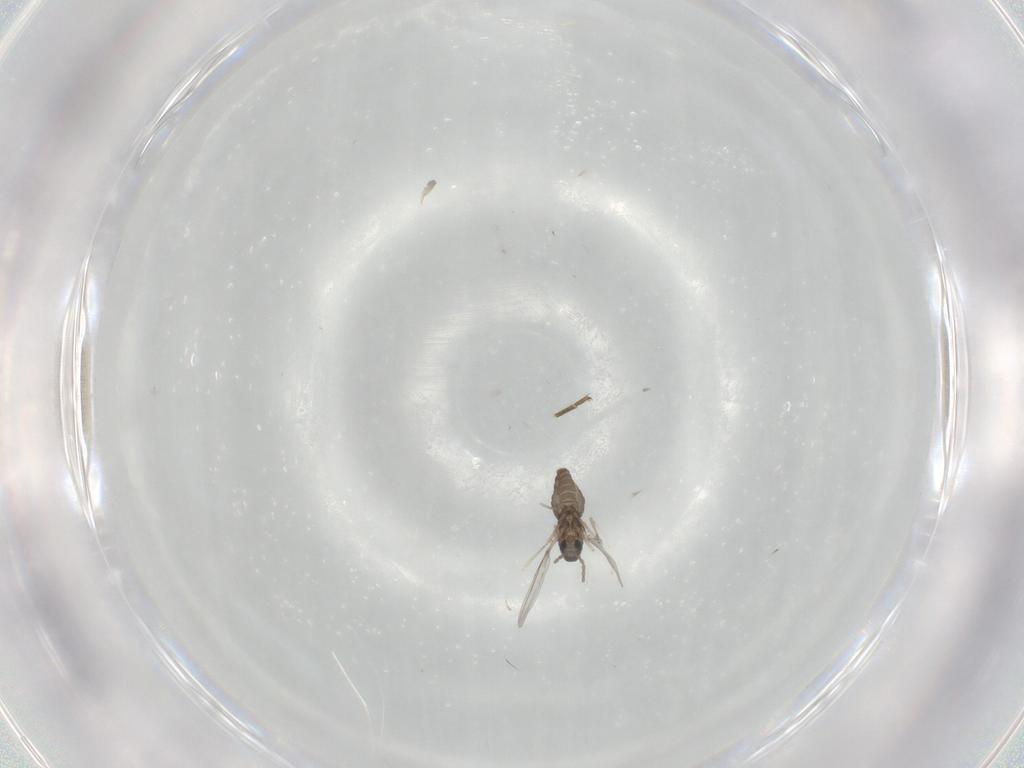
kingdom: Animalia
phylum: Arthropoda
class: Insecta
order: Diptera
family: Cecidomyiidae
